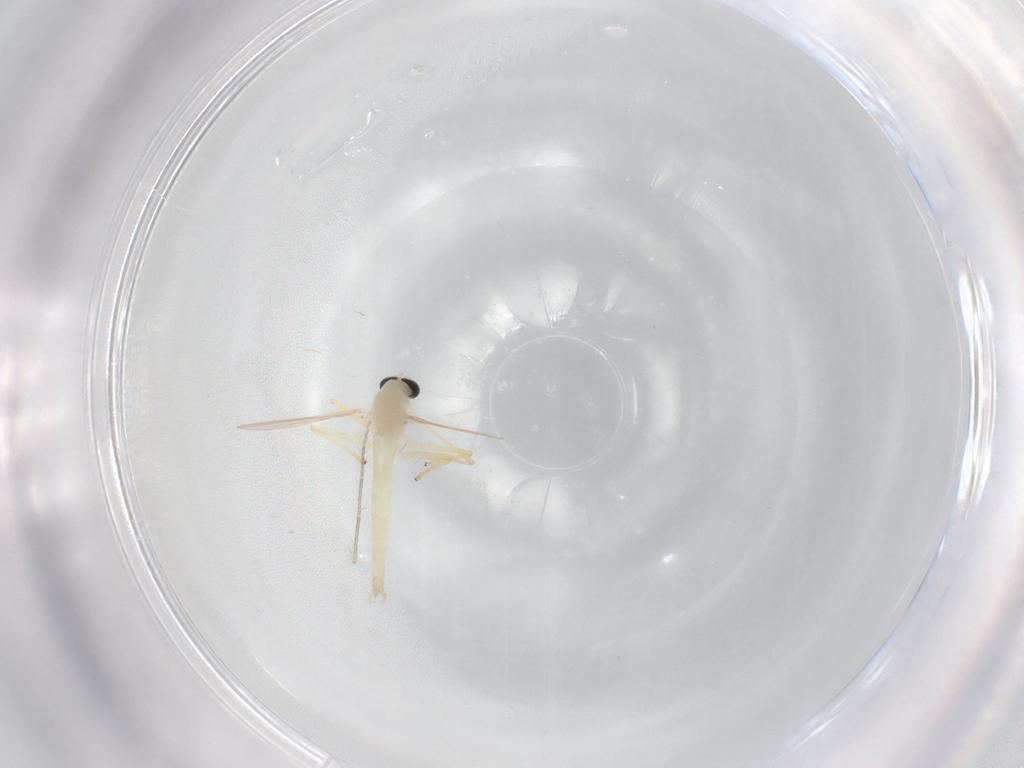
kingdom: Animalia
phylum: Arthropoda
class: Insecta
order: Diptera
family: Chironomidae
